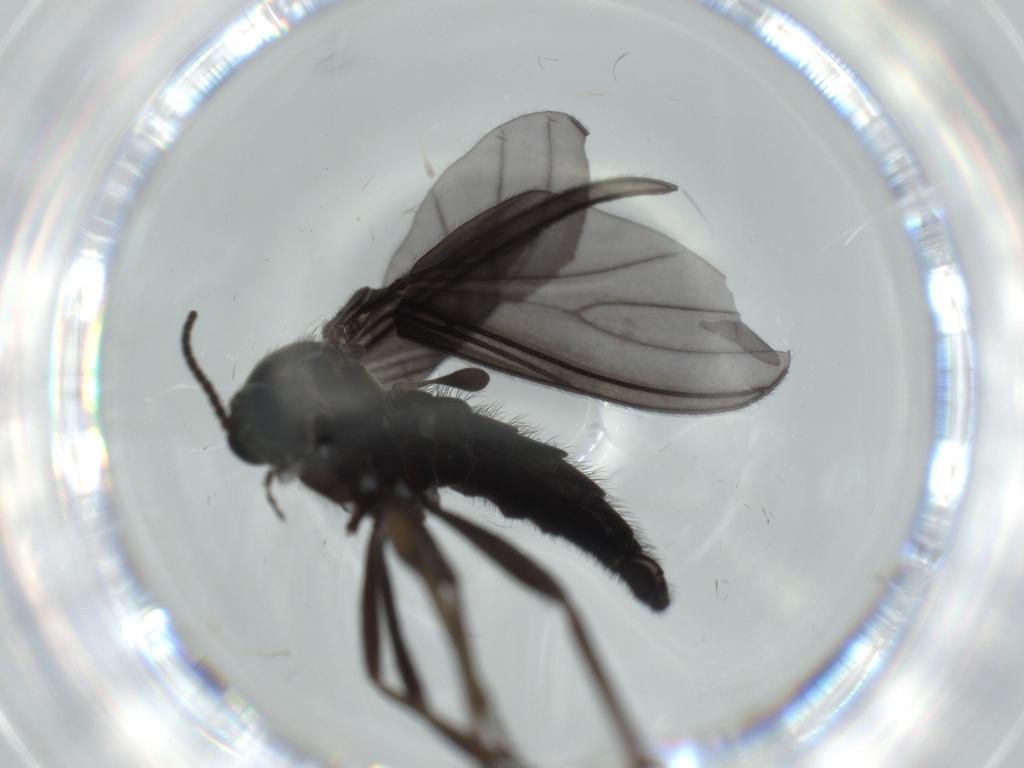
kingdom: Animalia
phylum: Arthropoda
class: Insecta
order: Diptera
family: Sciaridae
